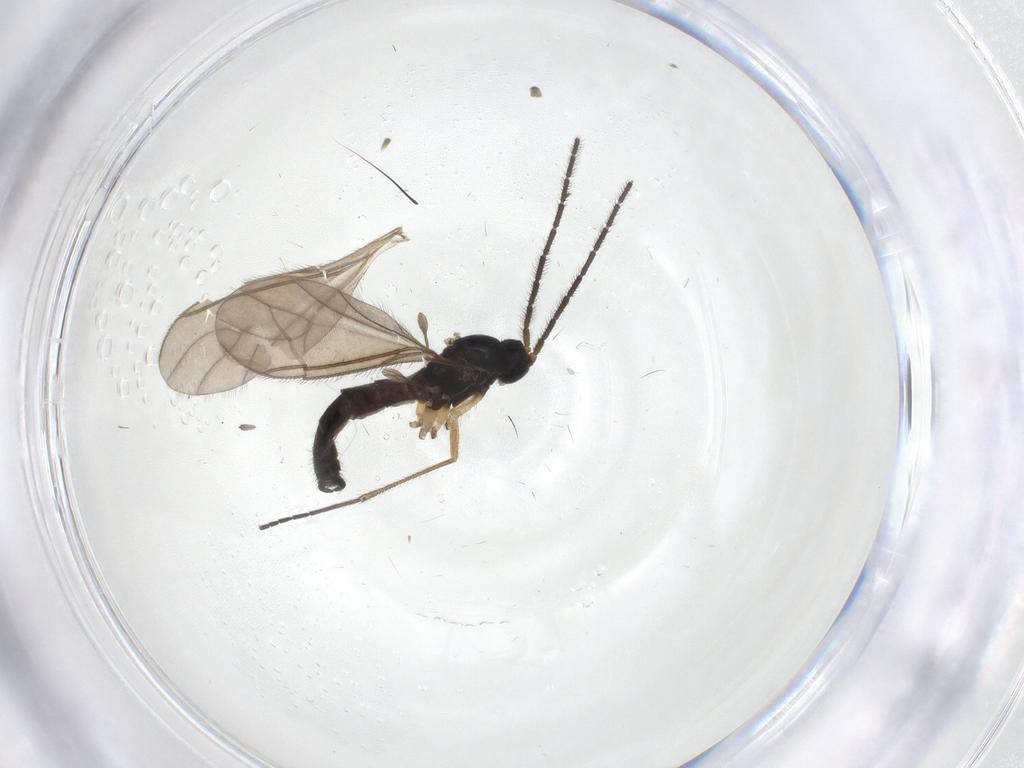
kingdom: Animalia
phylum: Arthropoda
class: Insecta
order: Diptera
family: Sciaridae
